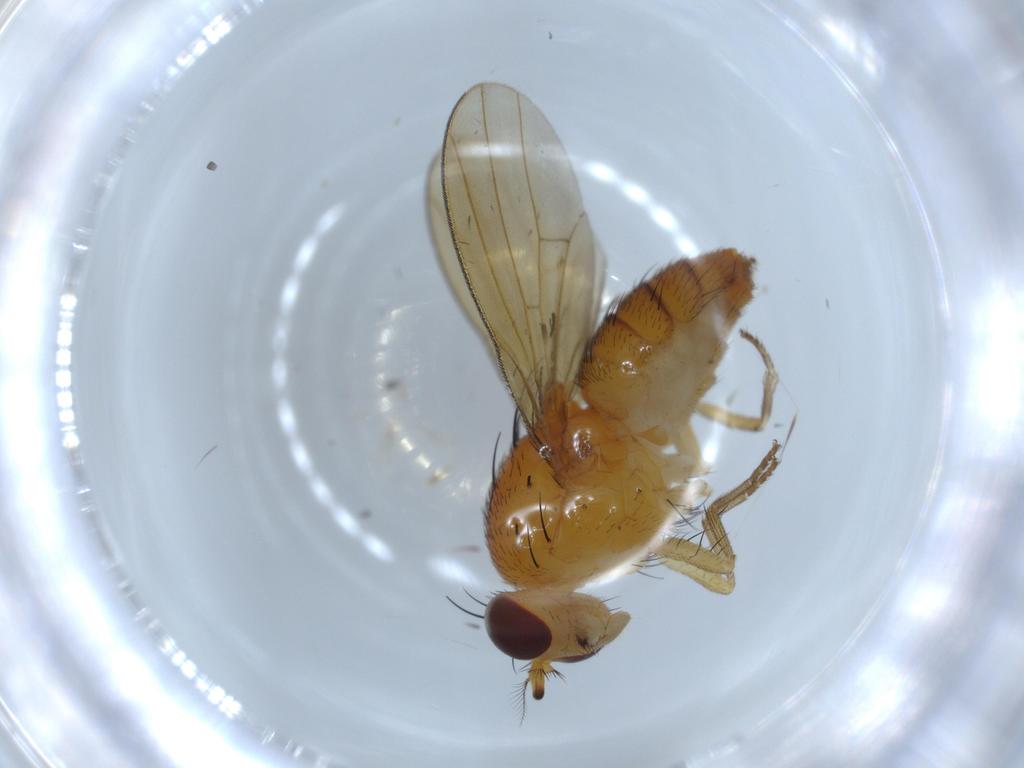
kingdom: Animalia
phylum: Arthropoda
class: Insecta
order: Diptera
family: Lauxaniidae
